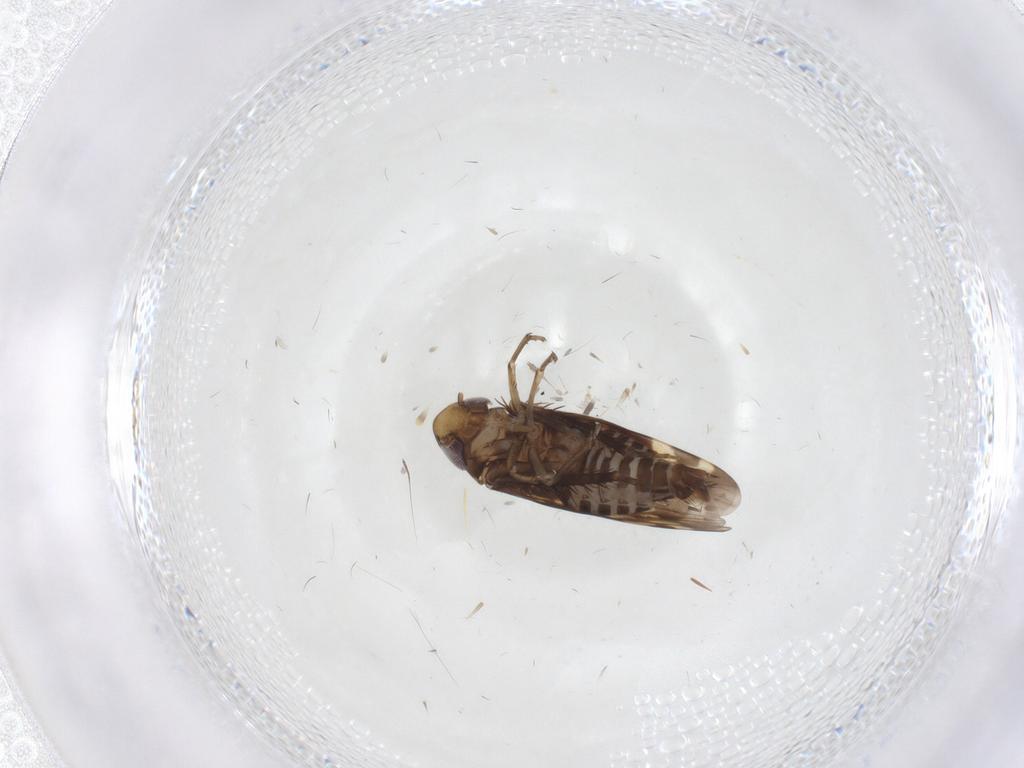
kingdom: Animalia
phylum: Arthropoda
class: Insecta
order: Hemiptera
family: Cicadellidae
